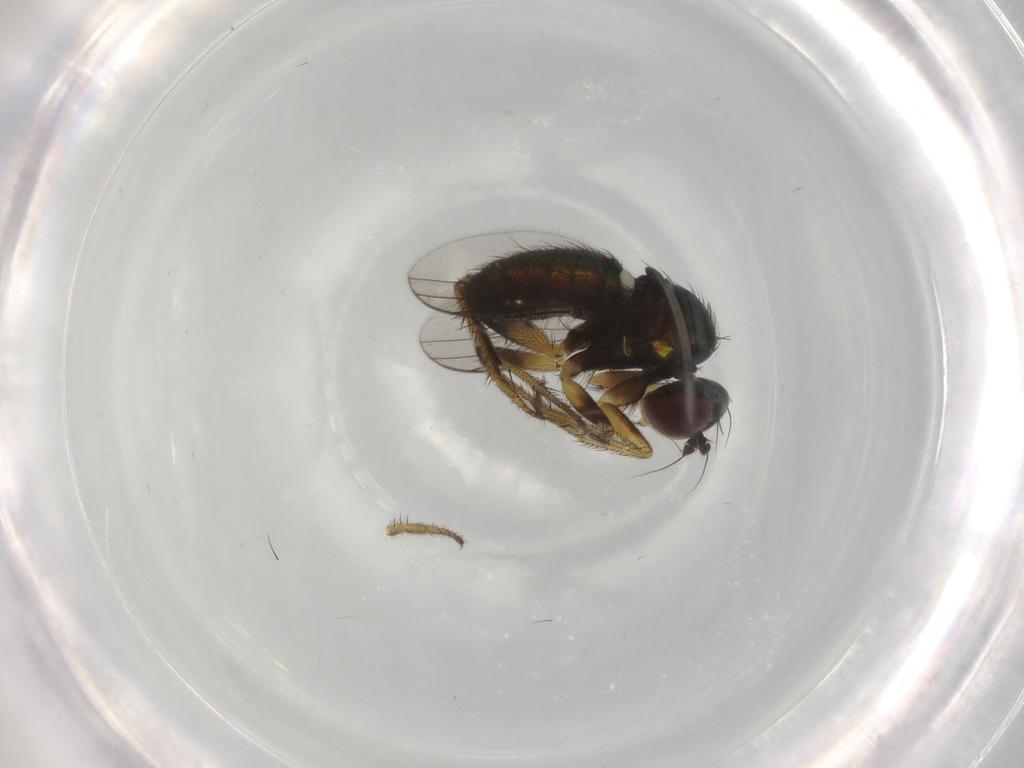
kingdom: Animalia
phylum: Arthropoda
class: Insecta
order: Diptera
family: Dolichopodidae
